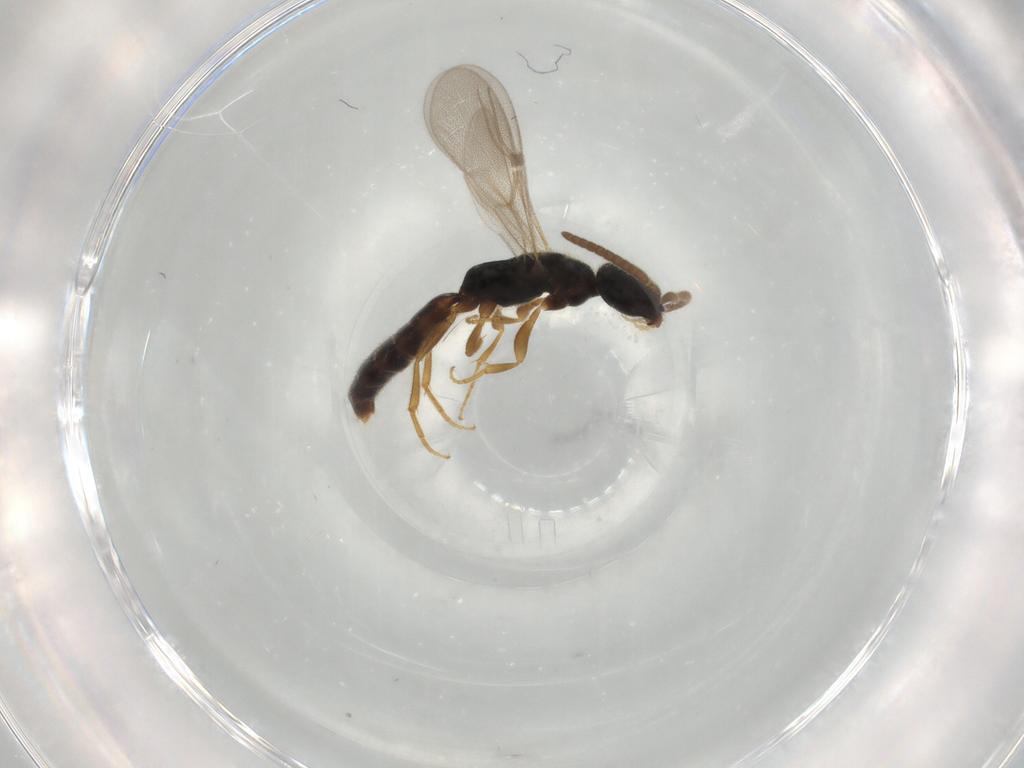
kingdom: Animalia
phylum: Arthropoda
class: Insecta
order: Hymenoptera
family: Bethylidae
